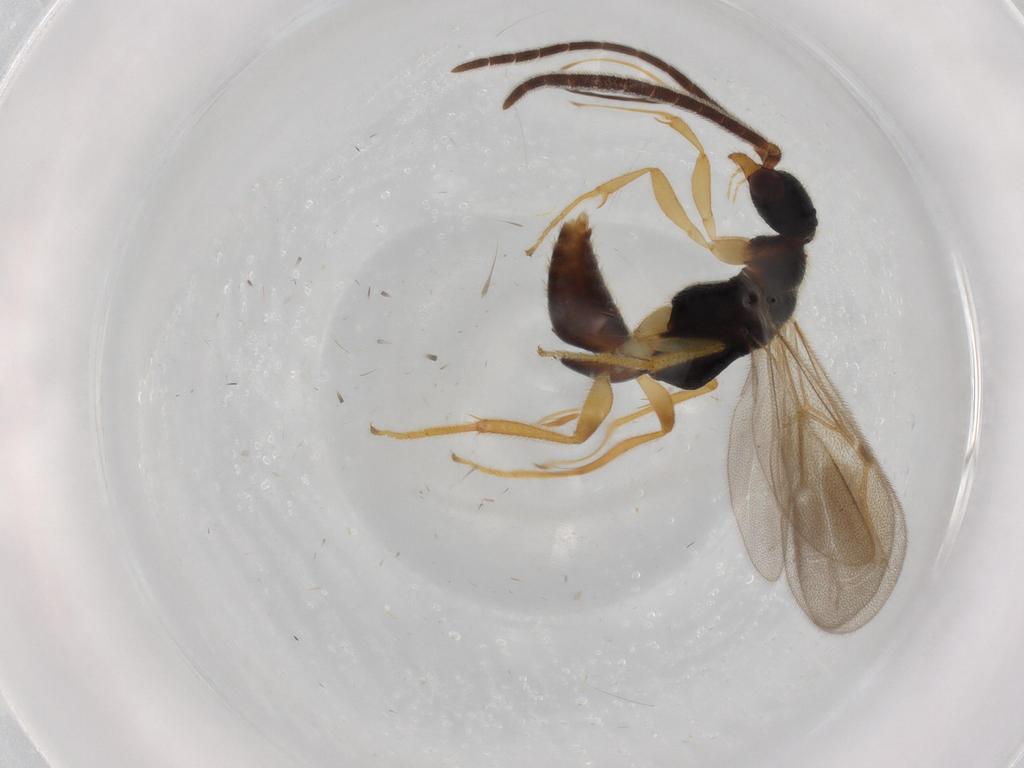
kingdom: Animalia
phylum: Arthropoda
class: Insecta
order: Hymenoptera
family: Bethylidae
